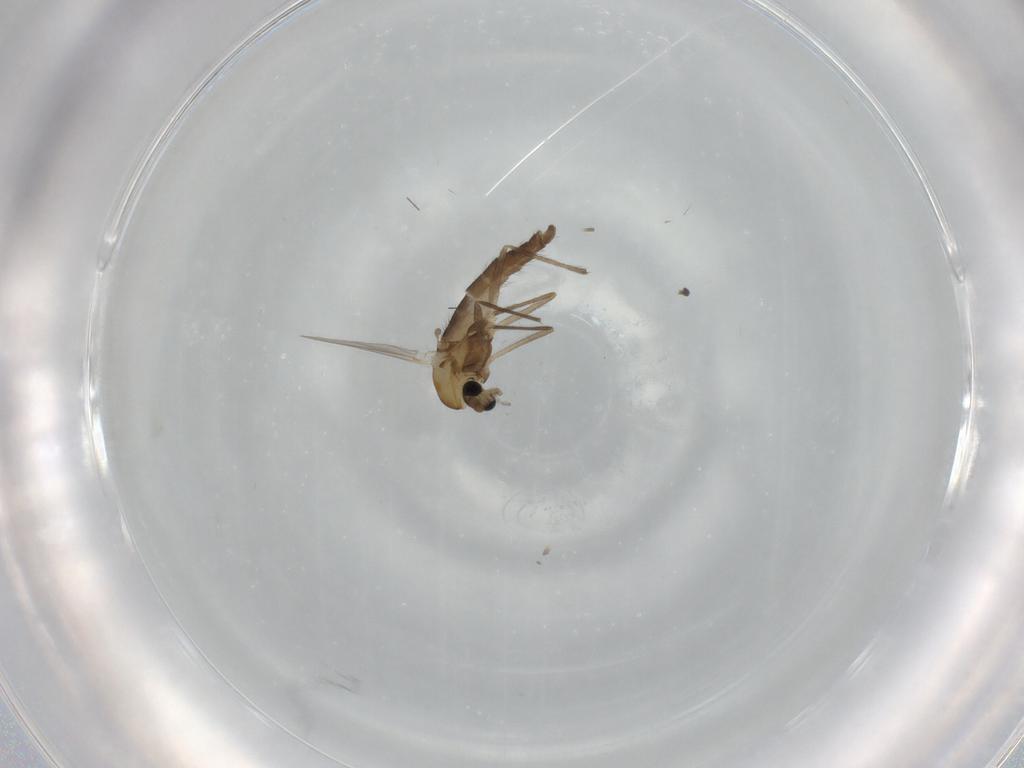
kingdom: Animalia
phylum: Arthropoda
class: Insecta
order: Diptera
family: Chironomidae
